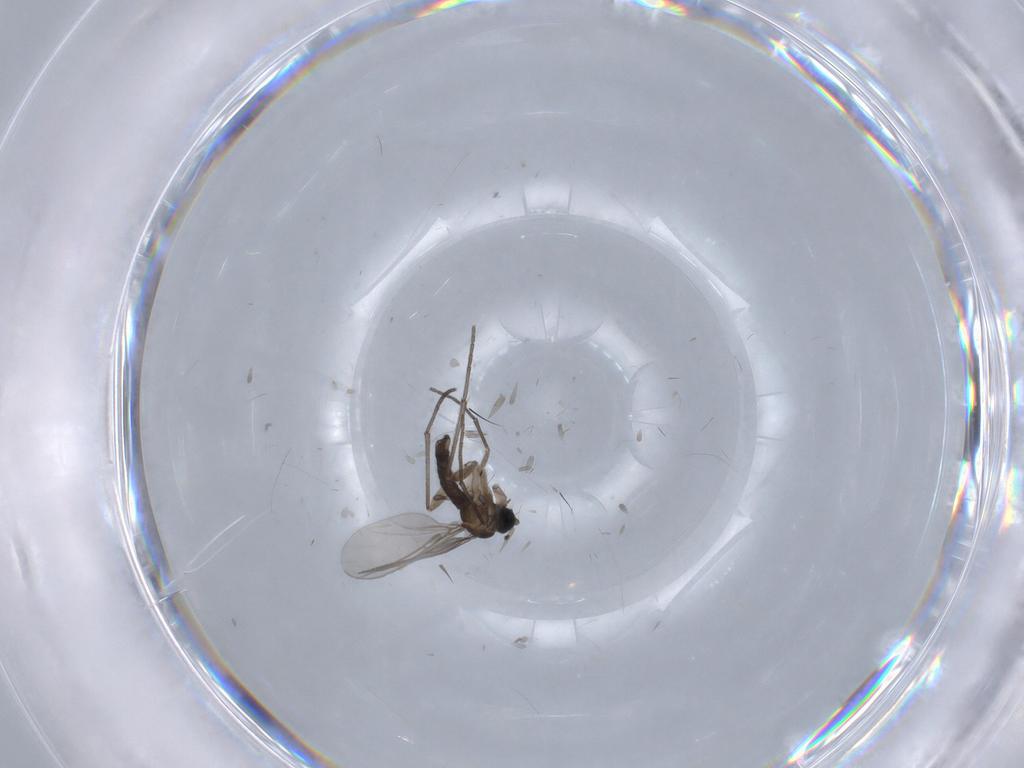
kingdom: Animalia
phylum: Arthropoda
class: Insecta
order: Diptera
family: Sciaridae
